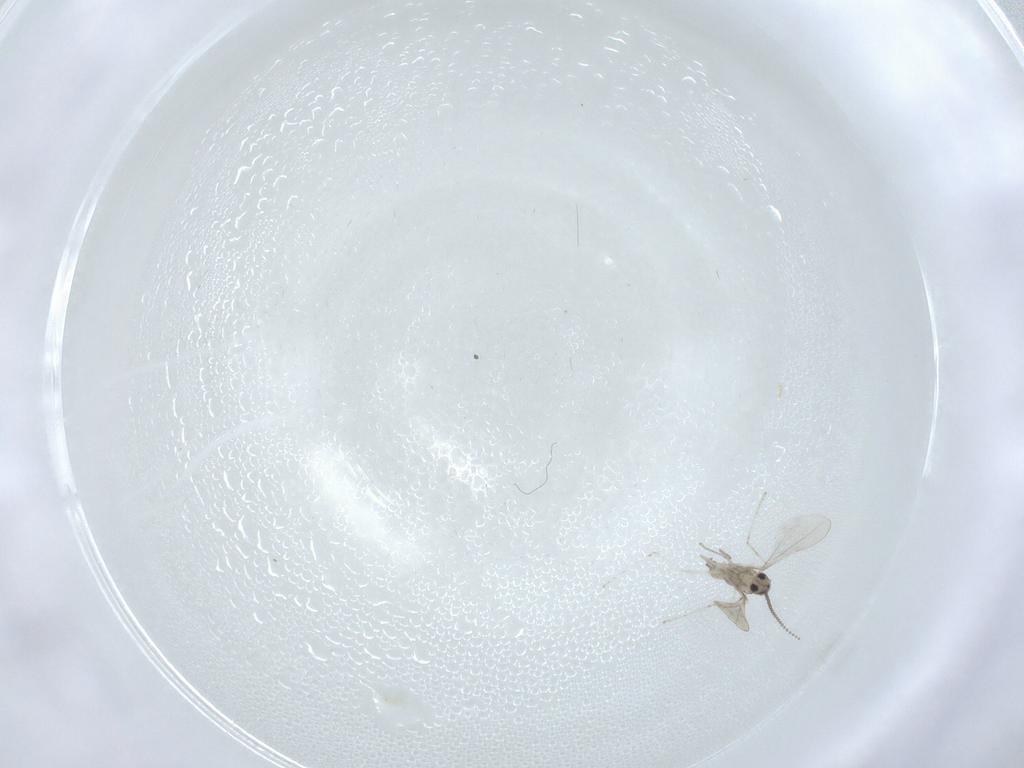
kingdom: Animalia
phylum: Arthropoda
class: Insecta
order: Diptera
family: Cecidomyiidae
